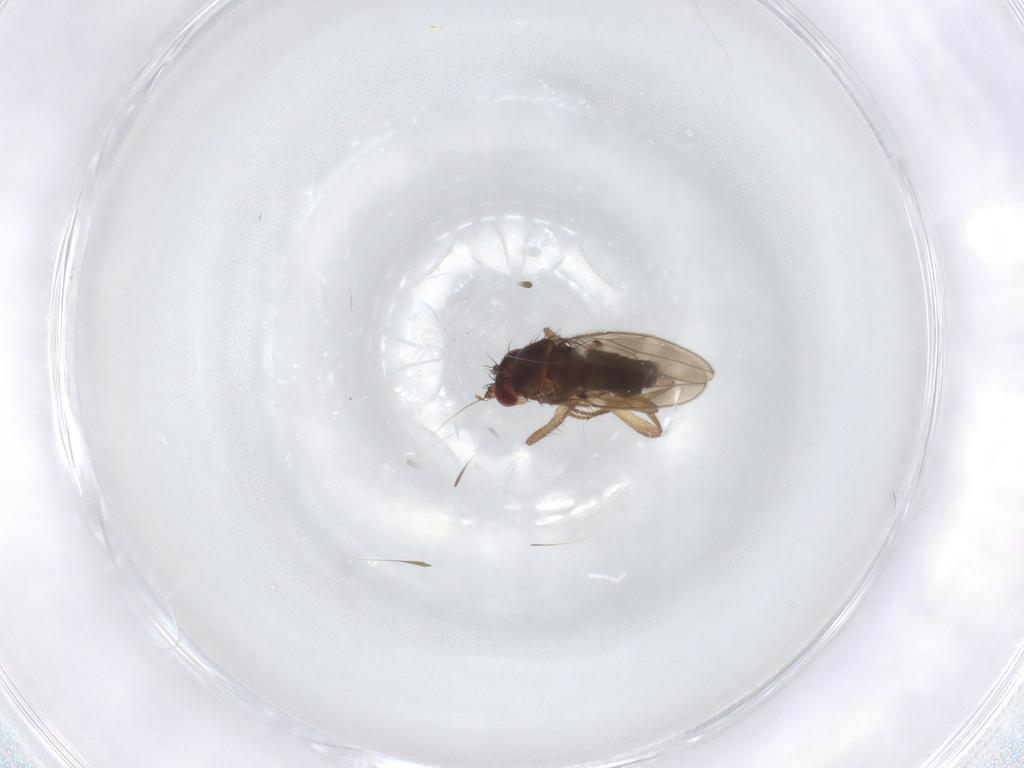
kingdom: Animalia
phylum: Arthropoda
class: Insecta
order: Diptera
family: Sphaeroceridae
